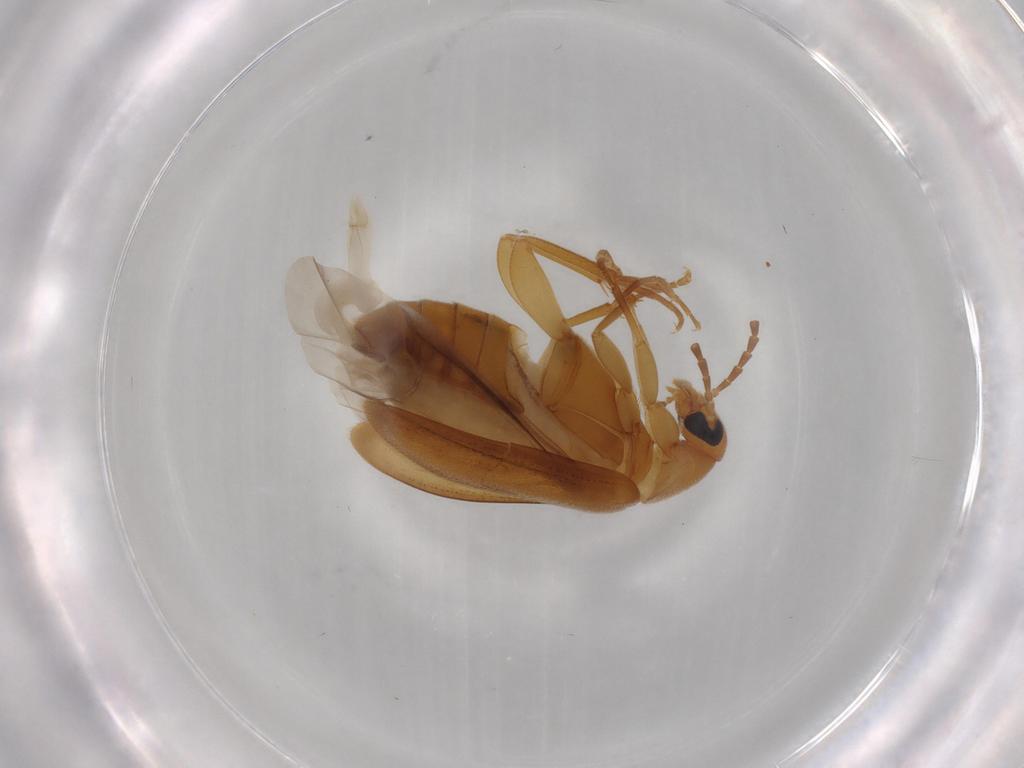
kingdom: Animalia
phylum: Arthropoda
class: Insecta
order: Coleoptera
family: Scraptiidae
